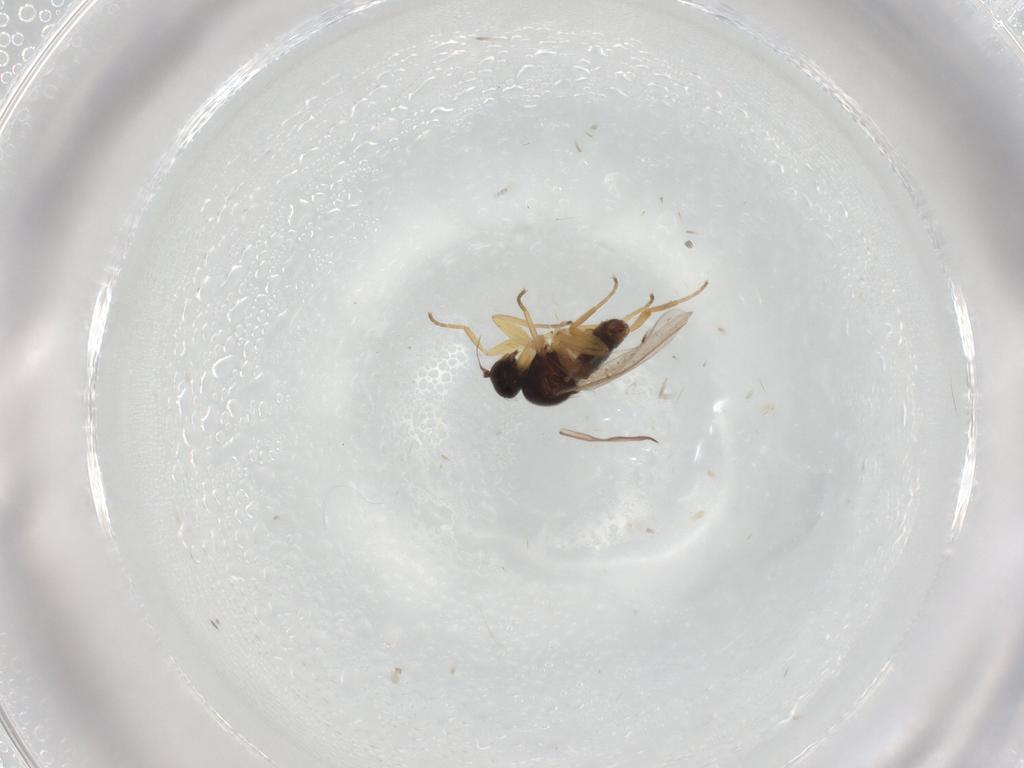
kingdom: Animalia
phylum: Arthropoda
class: Insecta
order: Diptera
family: Hybotidae
